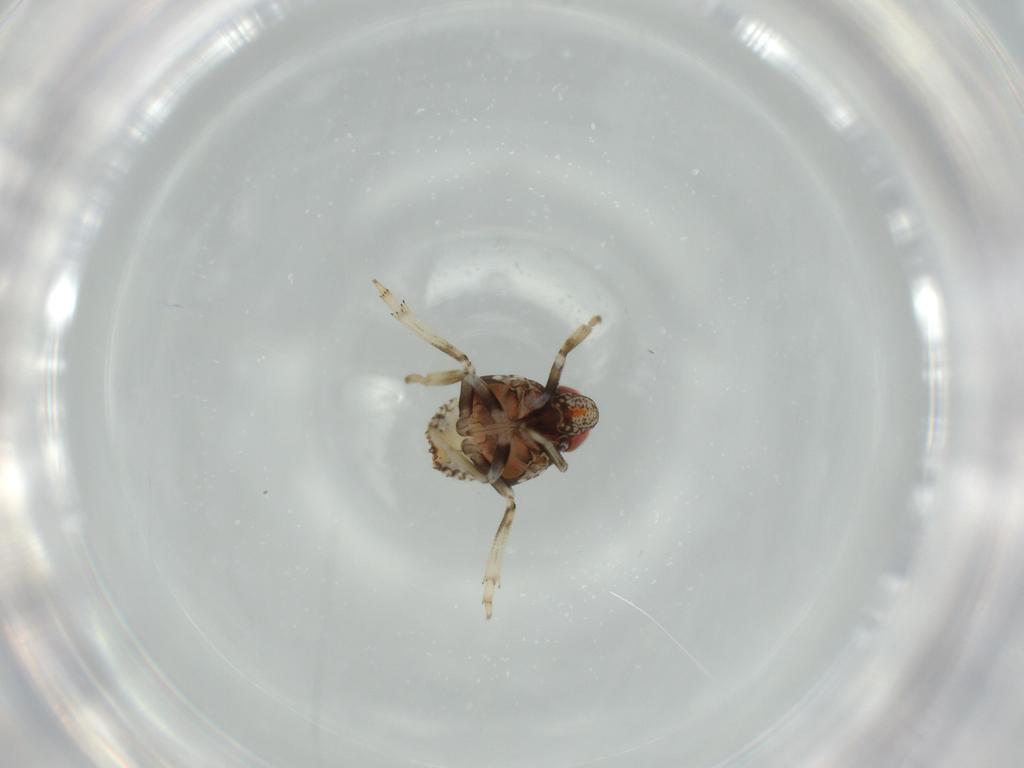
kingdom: Animalia
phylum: Arthropoda
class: Insecta
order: Hemiptera
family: Issidae
